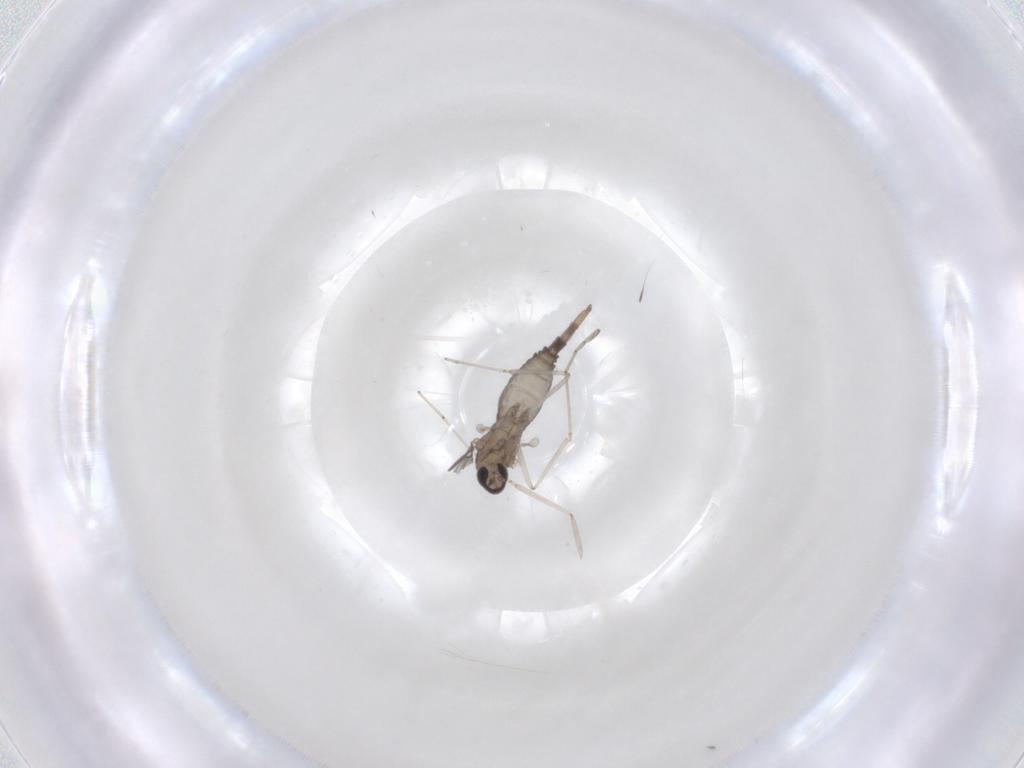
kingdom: Animalia
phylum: Arthropoda
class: Insecta
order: Diptera
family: Cecidomyiidae
